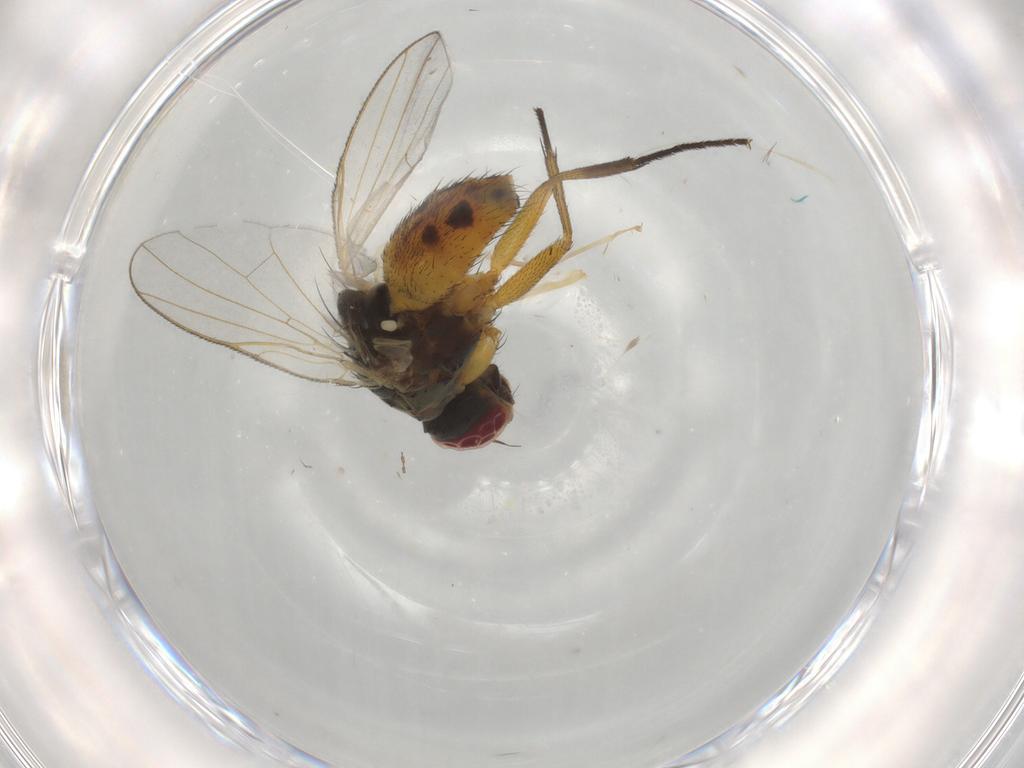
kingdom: Animalia
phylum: Arthropoda
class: Insecta
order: Diptera
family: Muscidae
